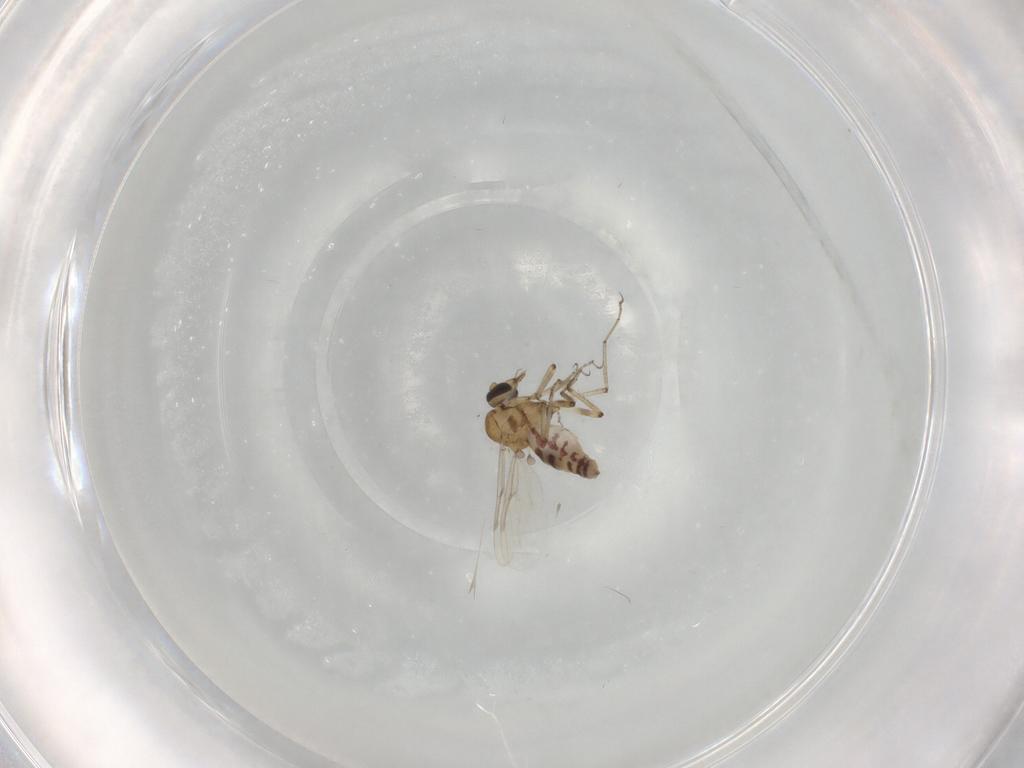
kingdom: Animalia
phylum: Arthropoda
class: Insecta
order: Diptera
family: Ceratopogonidae
